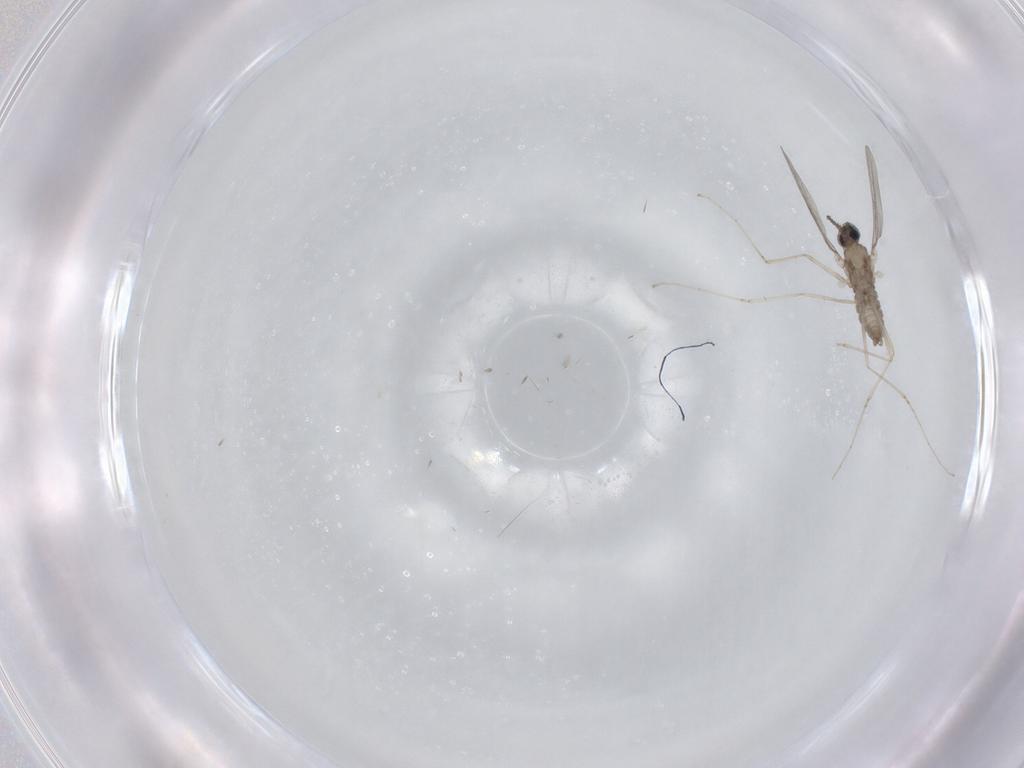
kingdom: Animalia
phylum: Arthropoda
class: Insecta
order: Diptera
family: Cecidomyiidae
